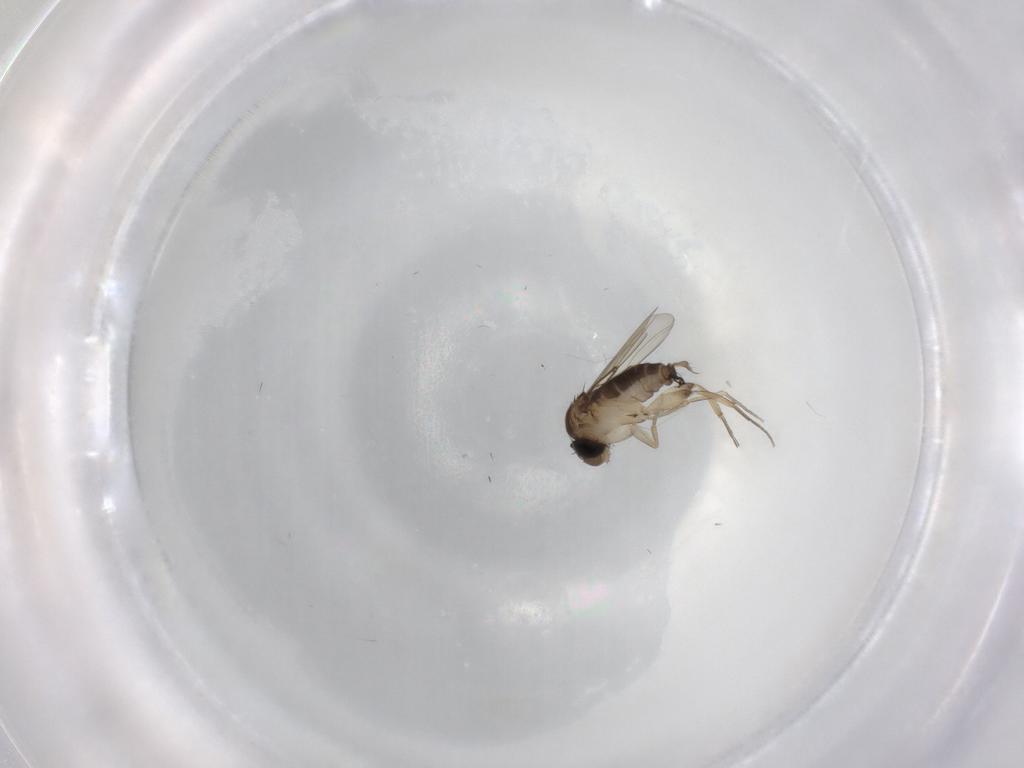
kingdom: Animalia
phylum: Arthropoda
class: Insecta
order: Diptera
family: Phoridae
